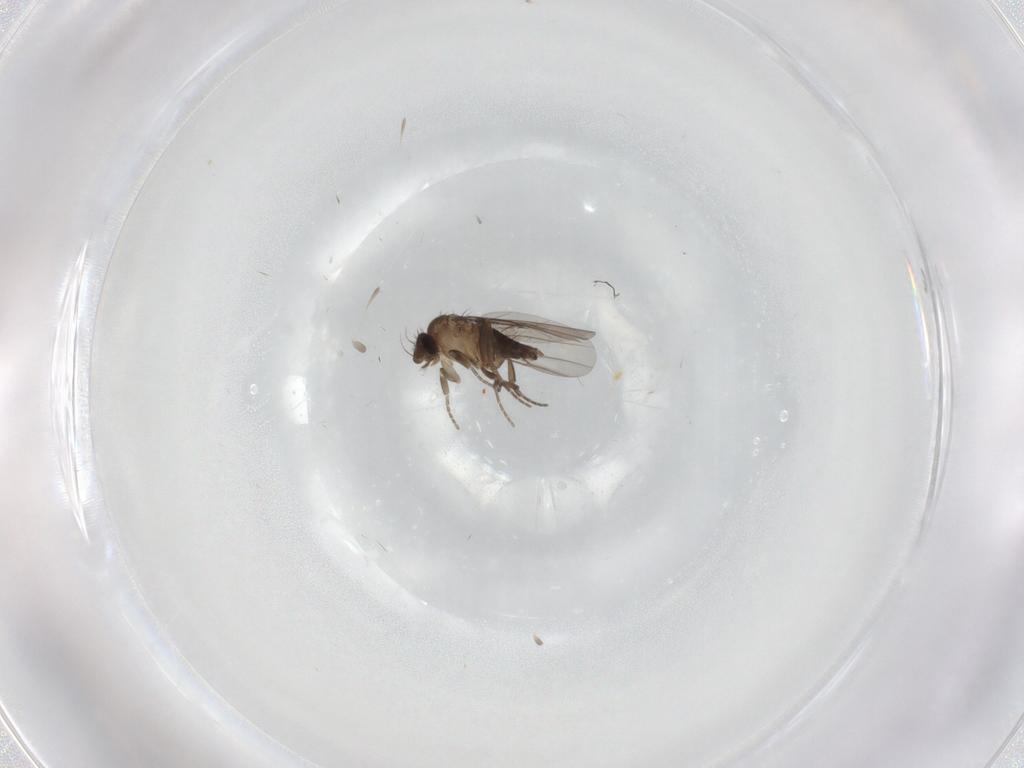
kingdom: Animalia
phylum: Arthropoda
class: Insecta
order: Diptera
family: Phoridae
